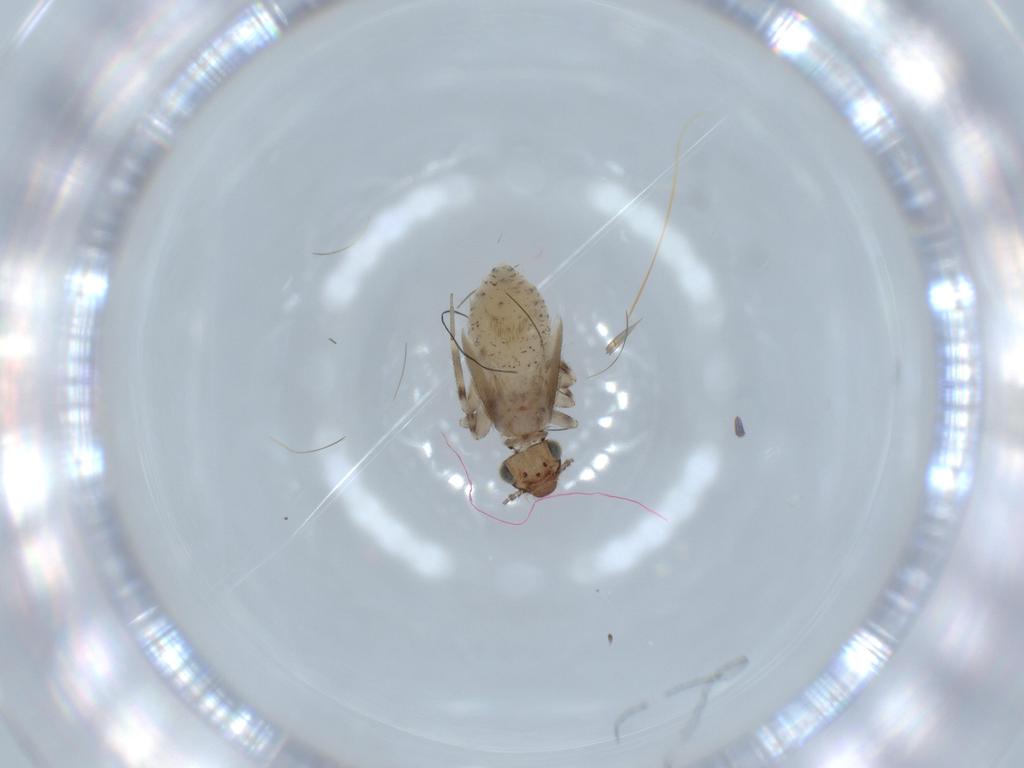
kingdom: Animalia
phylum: Arthropoda
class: Insecta
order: Psocodea
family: Lepidopsocidae
